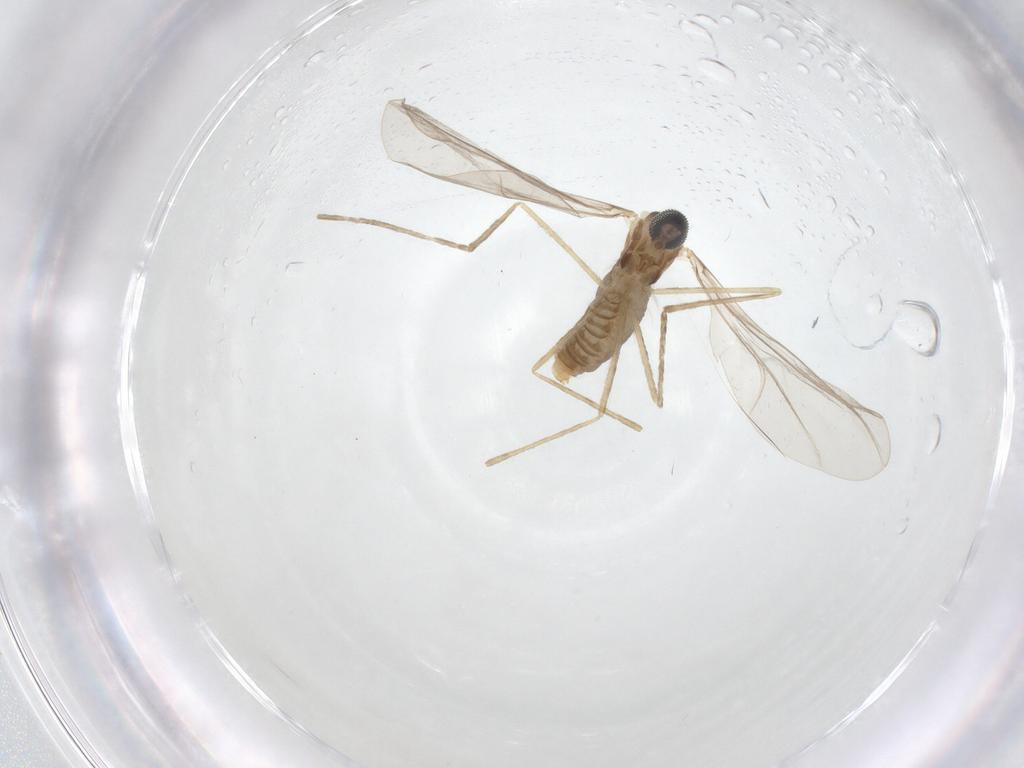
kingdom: Animalia
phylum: Arthropoda
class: Insecta
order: Diptera
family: Cecidomyiidae
